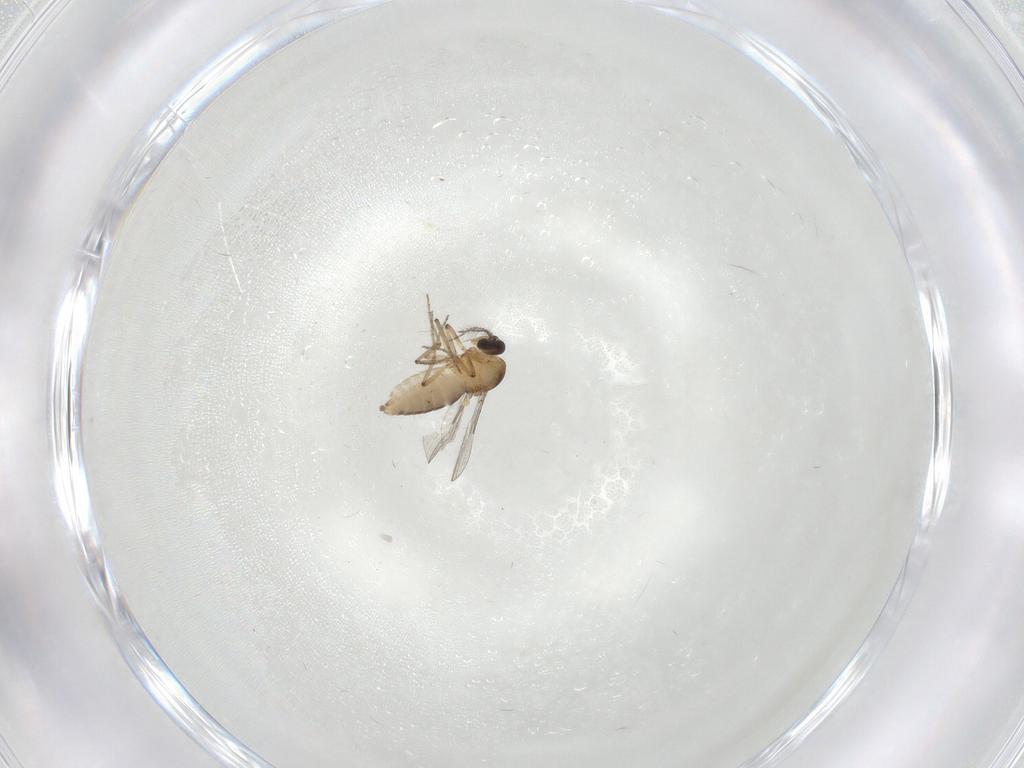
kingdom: Animalia
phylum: Arthropoda
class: Insecta
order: Diptera
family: Ceratopogonidae
